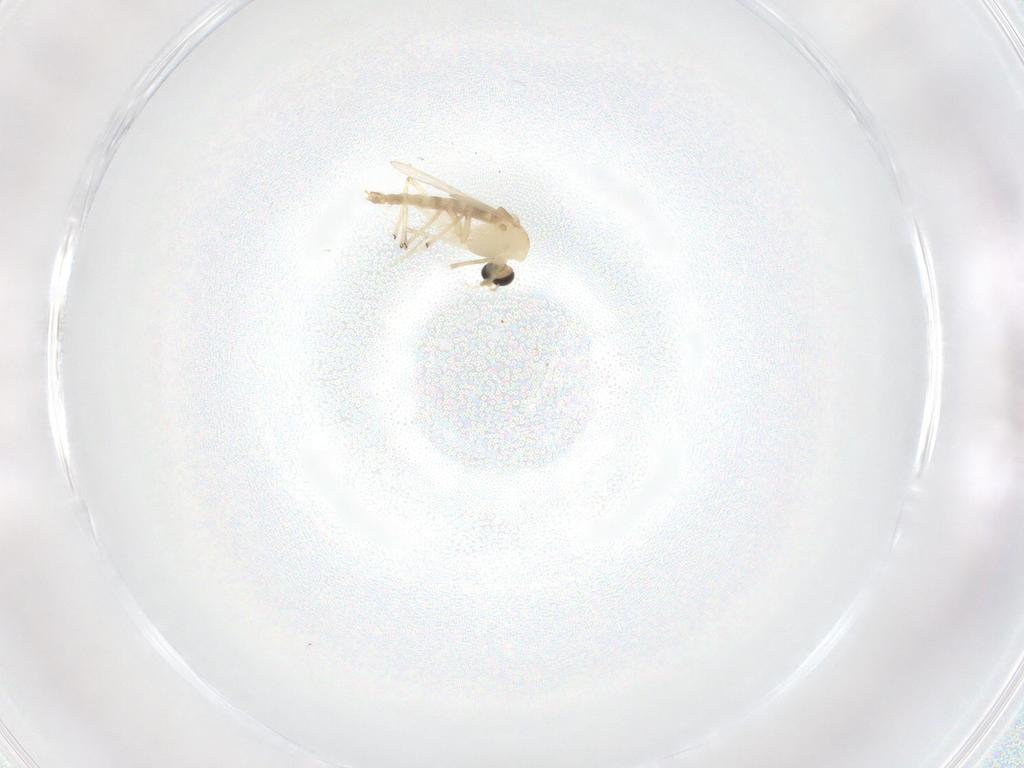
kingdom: Animalia
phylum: Arthropoda
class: Insecta
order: Diptera
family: Chironomidae
